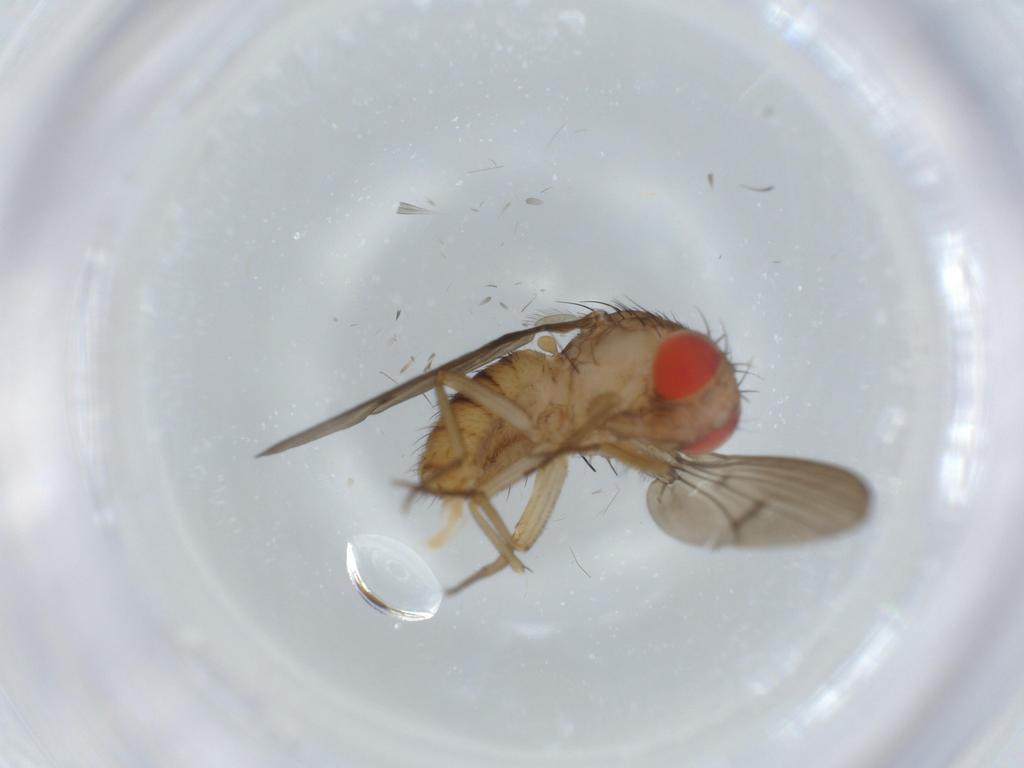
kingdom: Animalia
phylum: Arthropoda
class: Insecta
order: Diptera
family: Drosophilidae
